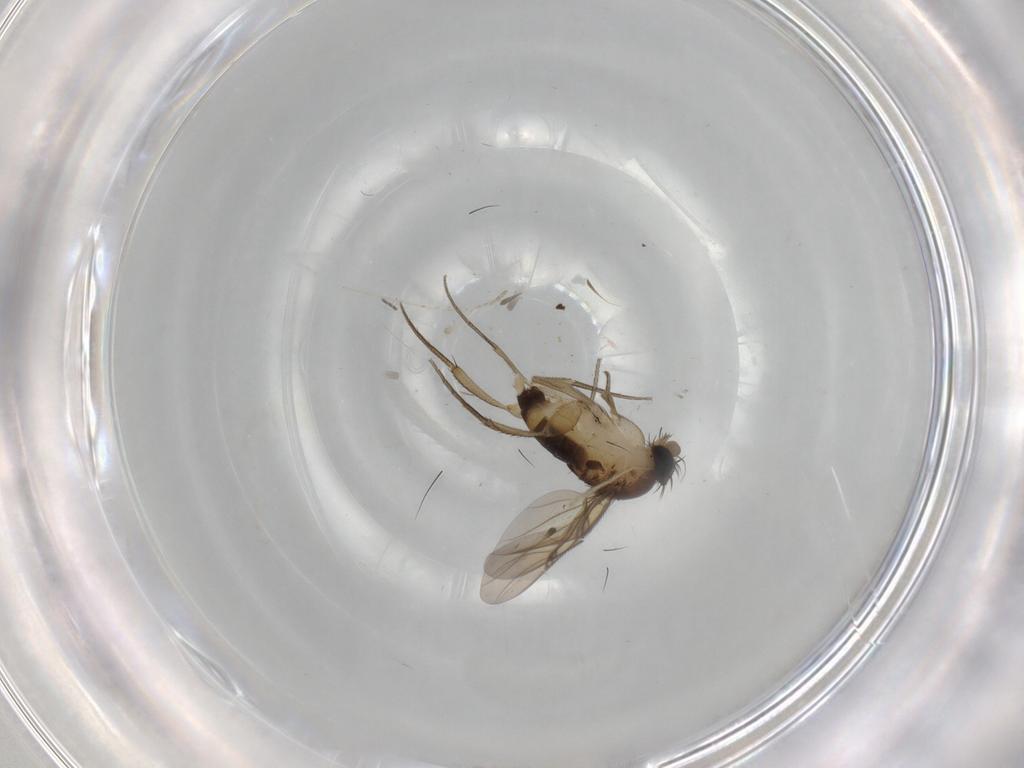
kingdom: Animalia
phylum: Arthropoda
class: Insecta
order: Diptera
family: Sciaridae
